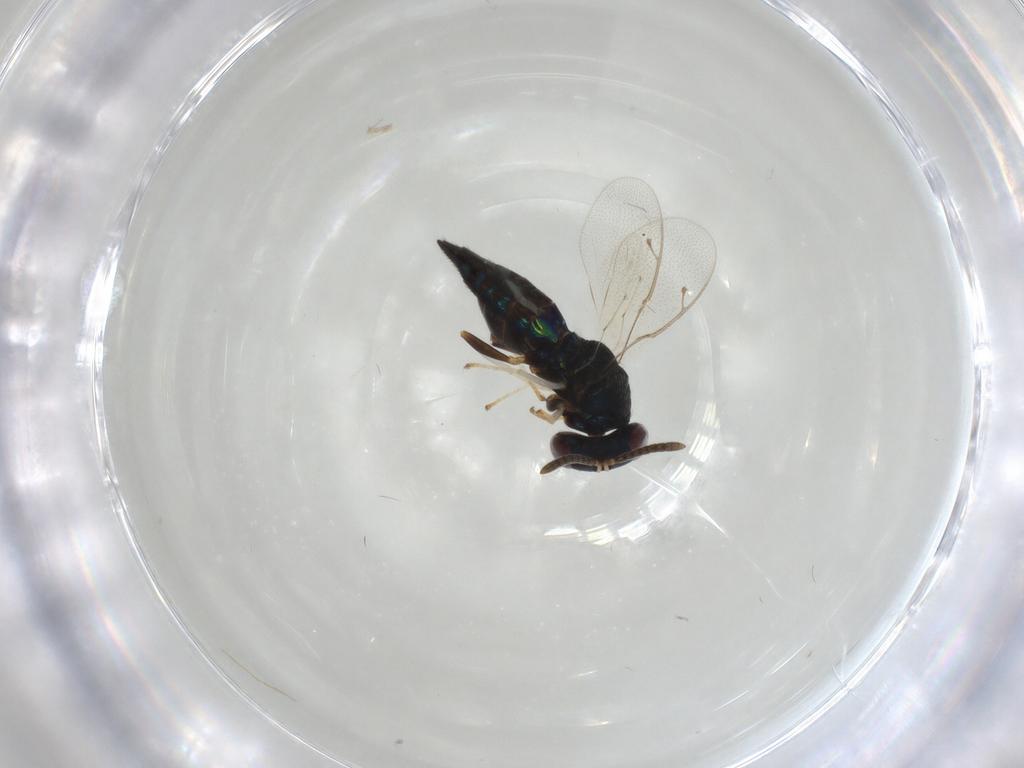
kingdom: Animalia
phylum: Arthropoda
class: Insecta
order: Hymenoptera
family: Pteromalidae
